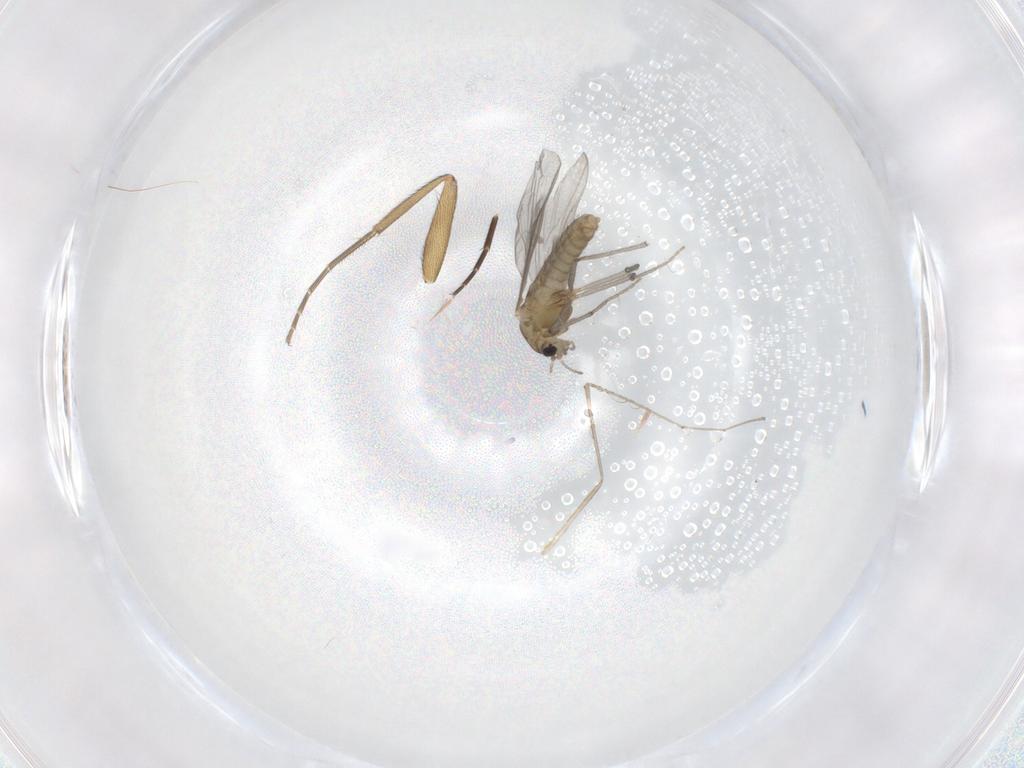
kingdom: Animalia
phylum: Arthropoda
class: Insecta
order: Diptera
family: Chironomidae
